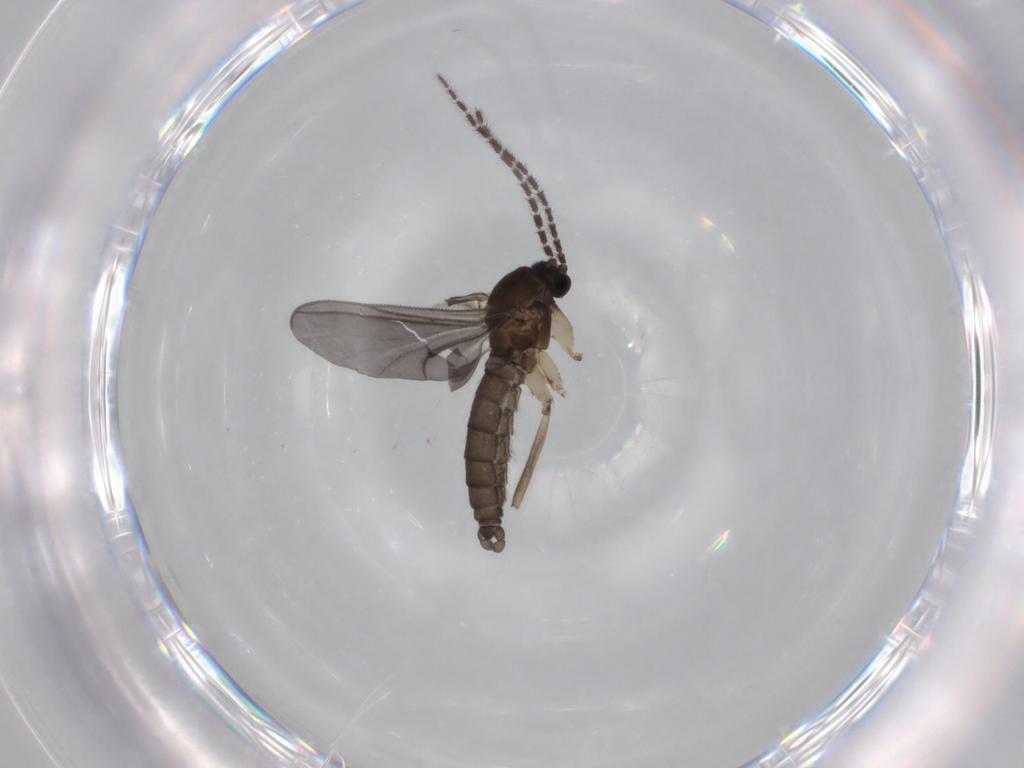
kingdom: Animalia
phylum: Arthropoda
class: Insecta
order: Diptera
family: Sciaridae
